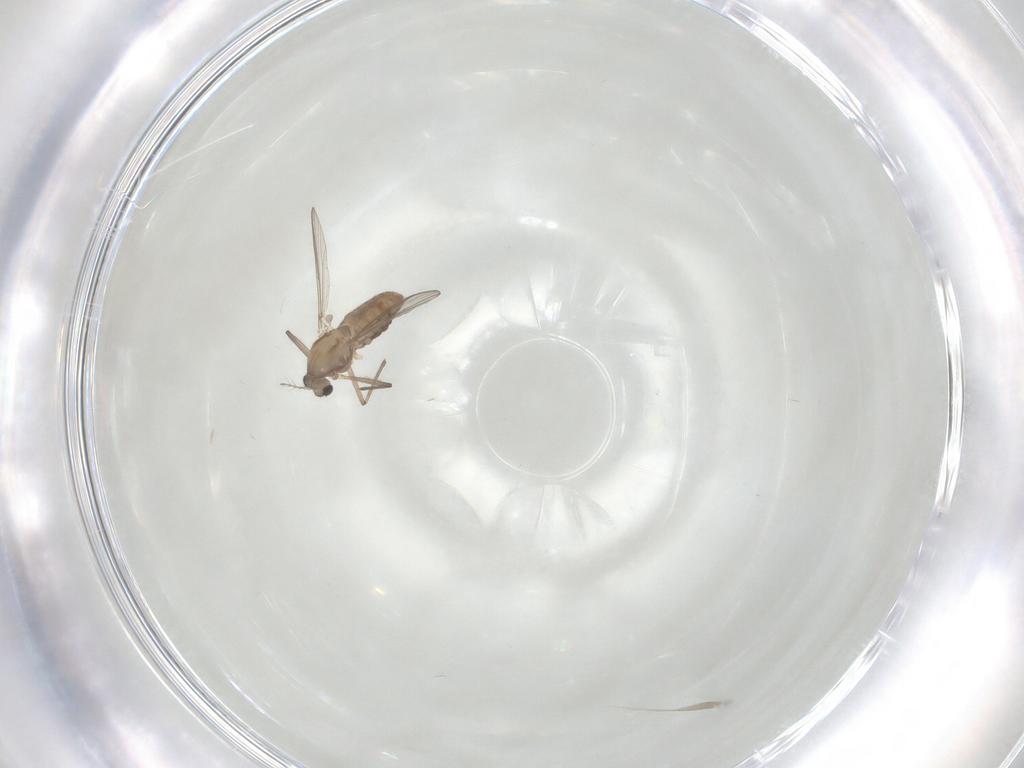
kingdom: Animalia
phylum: Arthropoda
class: Insecta
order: Diptera
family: Chironomidae
